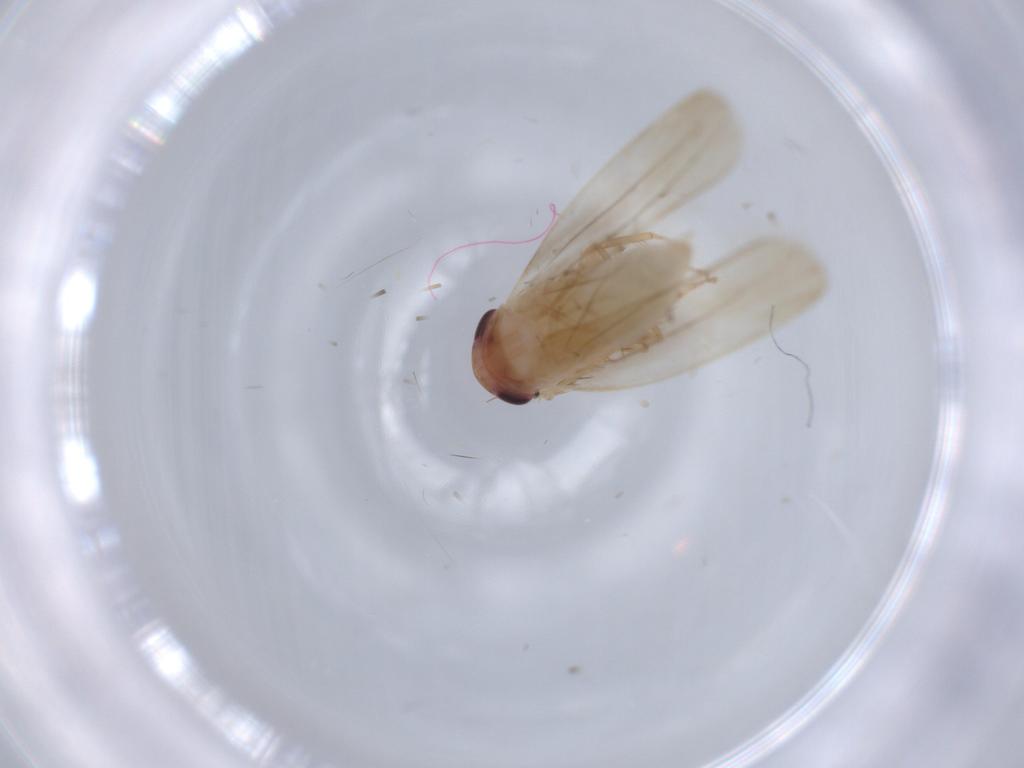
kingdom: Animalia
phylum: Arthropoda
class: Insecta
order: Hemiptera
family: Cicadellidae
